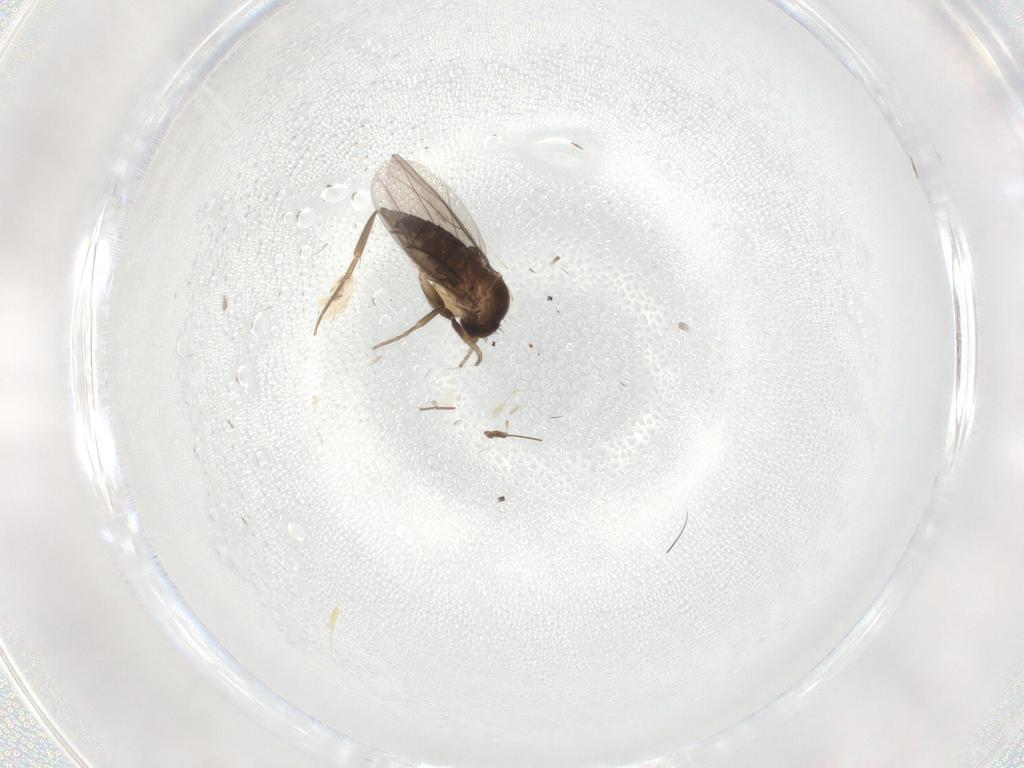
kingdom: Animalia
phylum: Arthropoda
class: Insecta
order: Diptera
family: Phoridae
